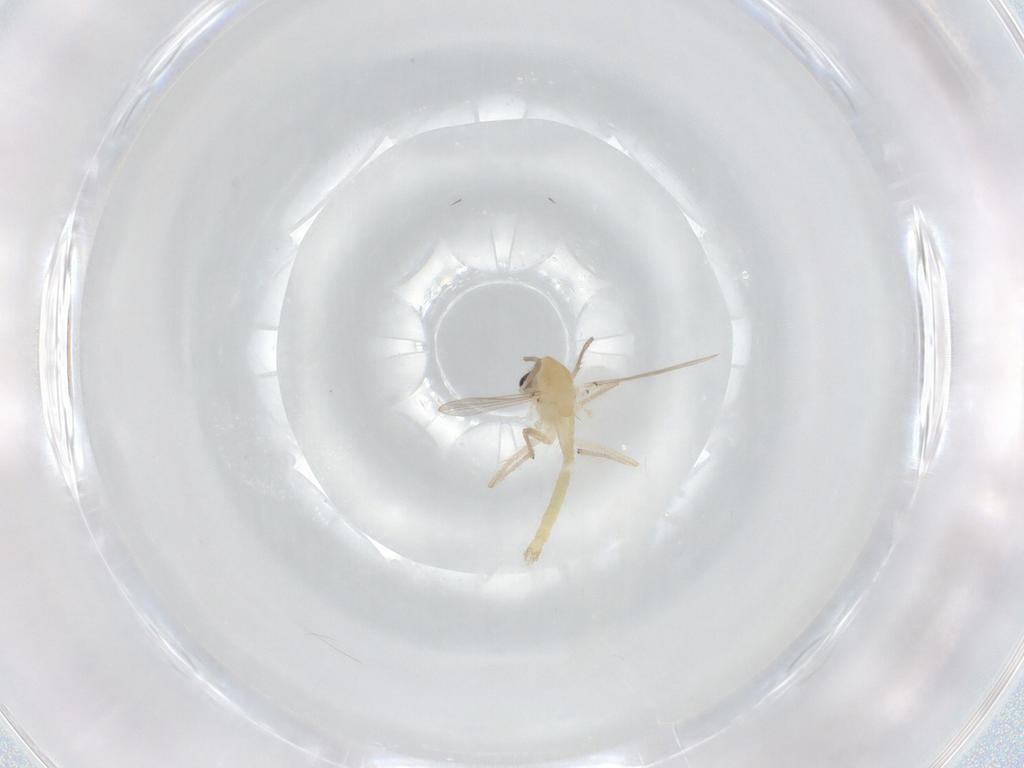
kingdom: Animalia
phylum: Arthropoda
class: Insecta
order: Diptera
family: Chironomidae
